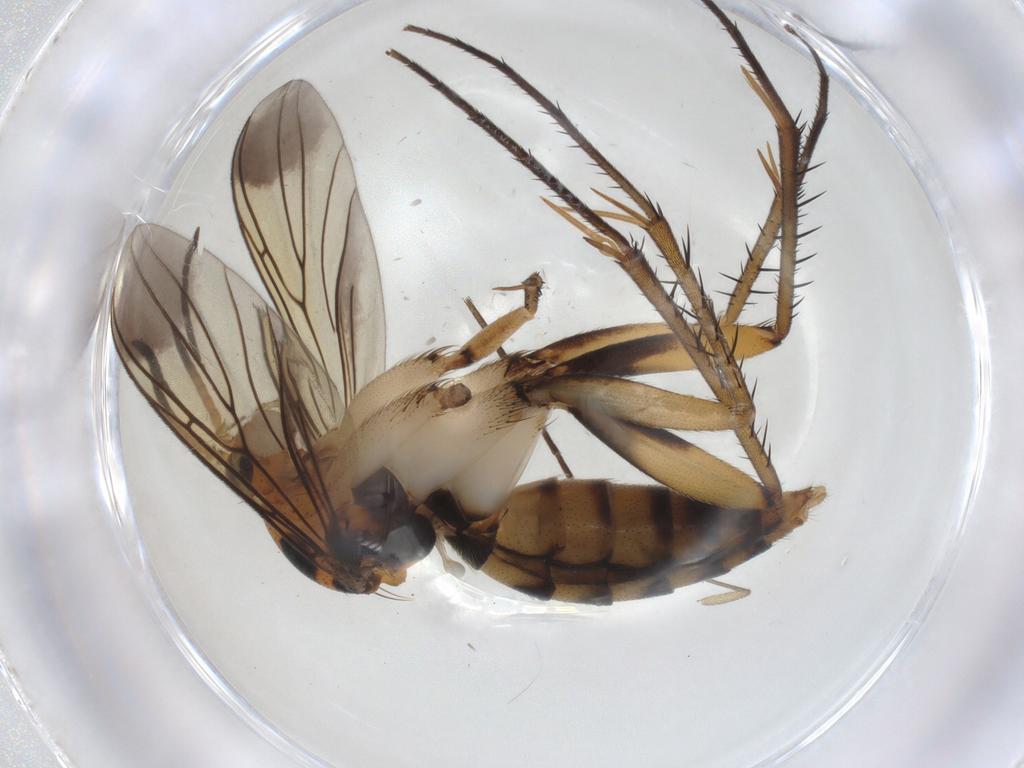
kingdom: Animalia
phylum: Arthropoda
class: Insecta
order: Diptera
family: Mycetophilidae
